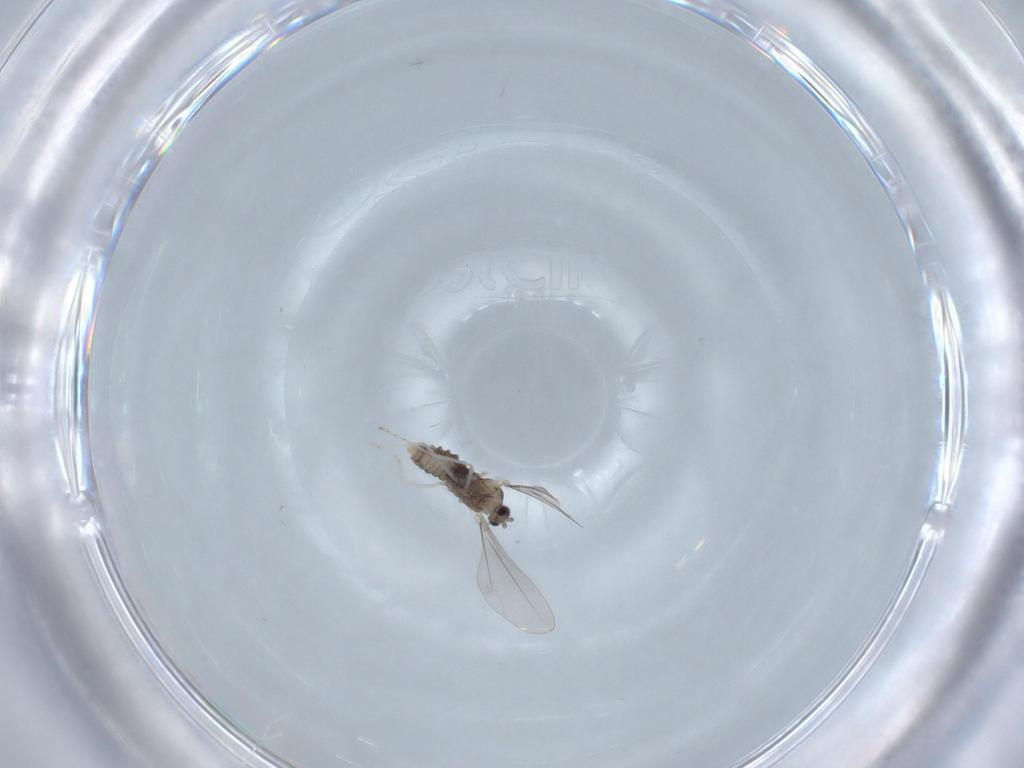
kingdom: Animalia
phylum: Arthropoda
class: Insecta
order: Diptera
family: Cecidomyiidae
